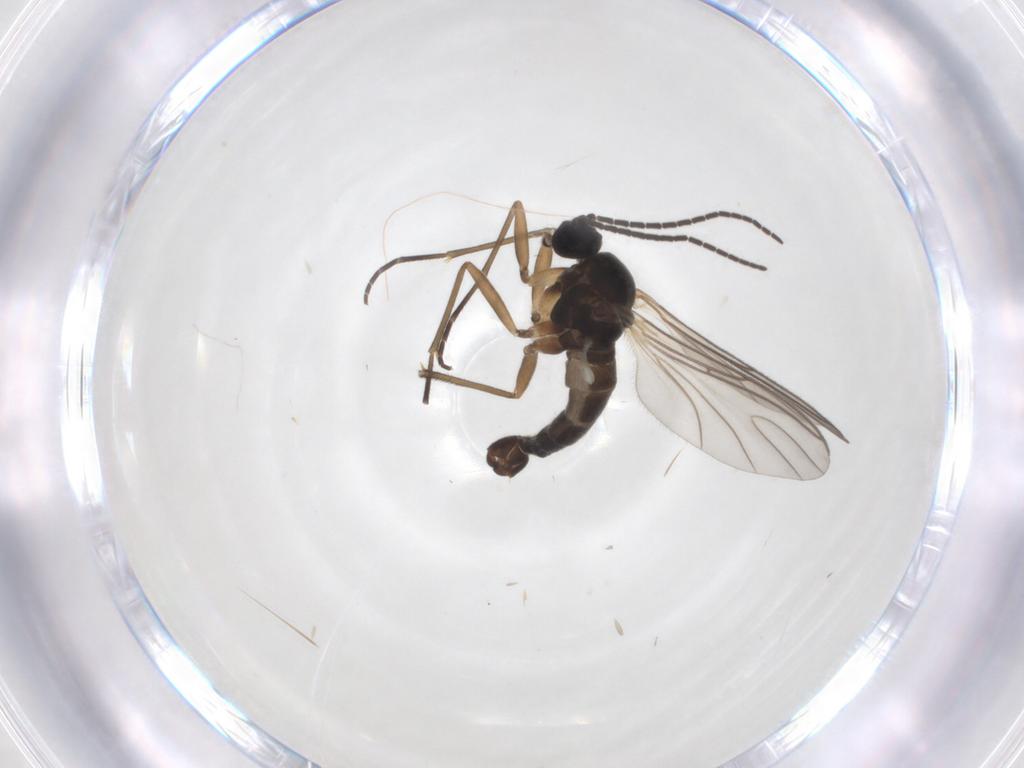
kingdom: Animalia
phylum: Arthropoda
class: Insecta
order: Diptera
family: Sciaridae
